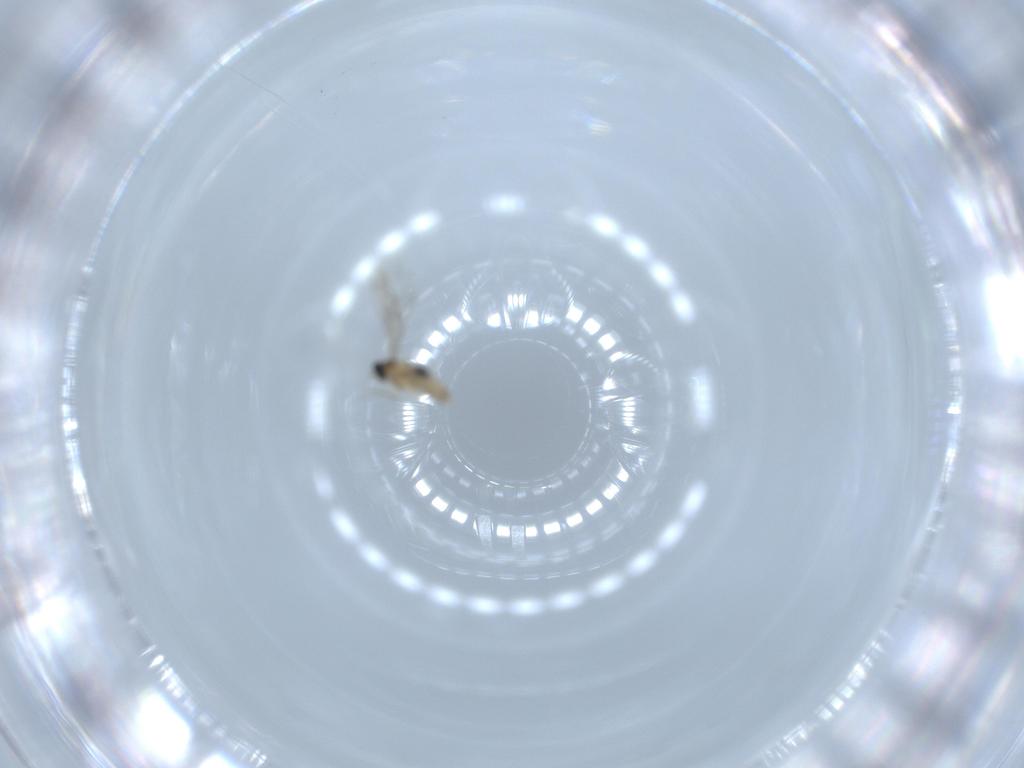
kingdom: Animalia
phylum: Arthropoda
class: Insecta
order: Diptera
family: Cecidomyiidae
